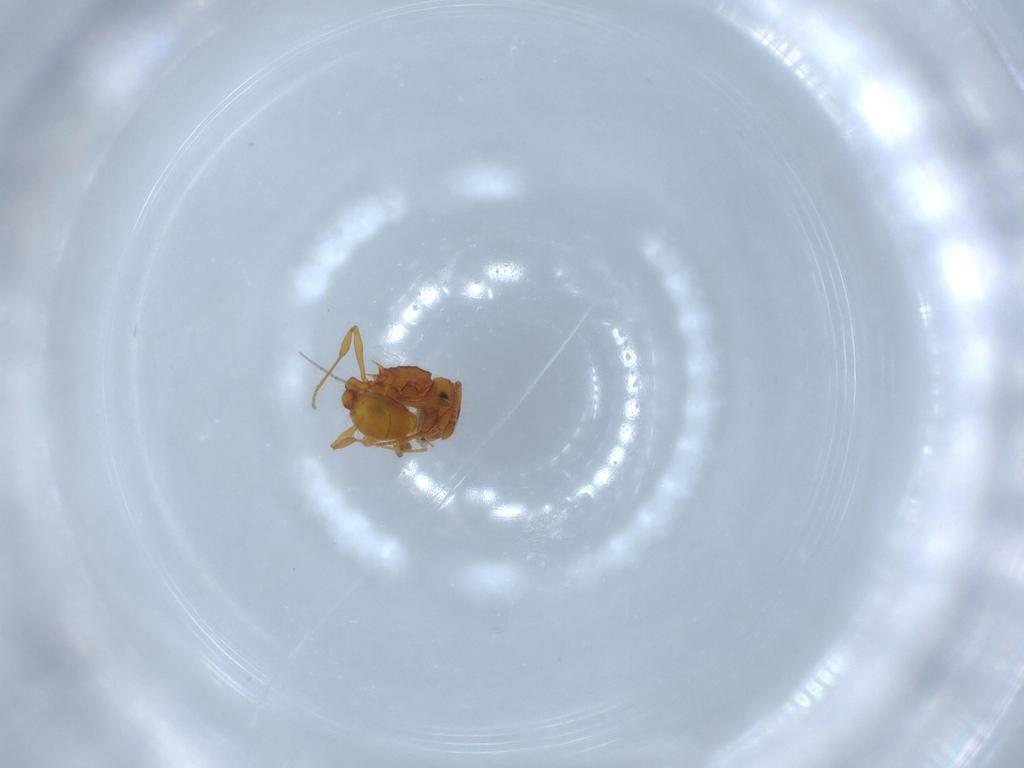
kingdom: Animalia
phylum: Arthropoda
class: Insecta
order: Hymenoptera
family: Formicidae
